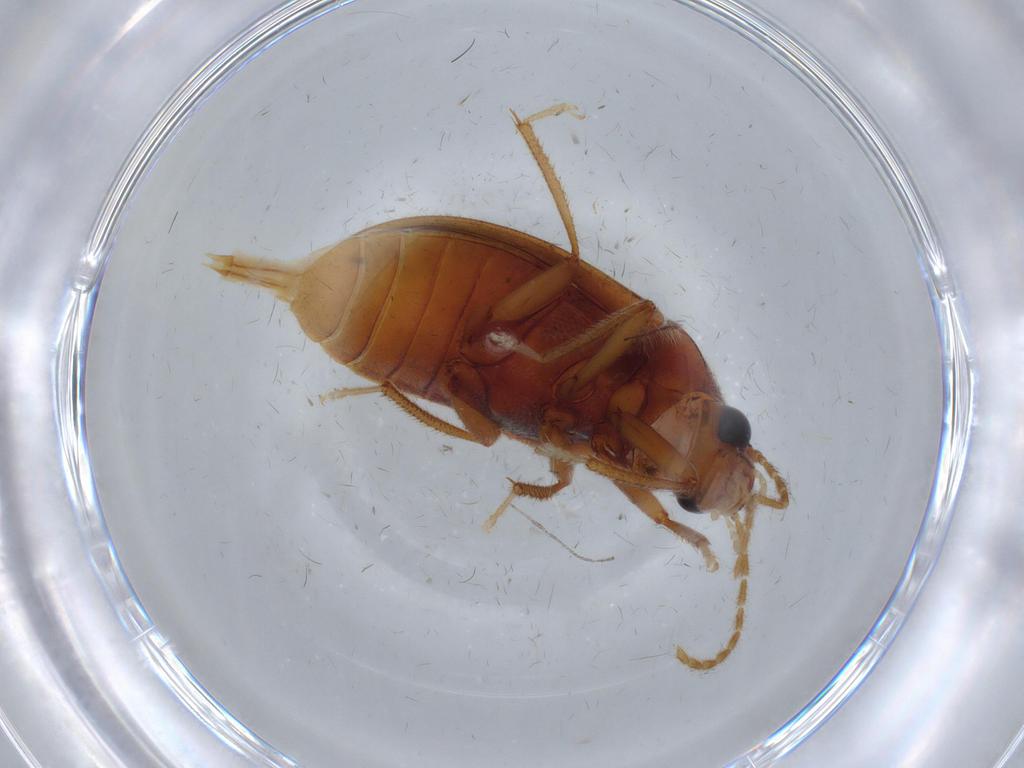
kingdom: Animalia
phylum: Arthropoda
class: Insecta
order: Coleoptera
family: Ptilodactylidae
